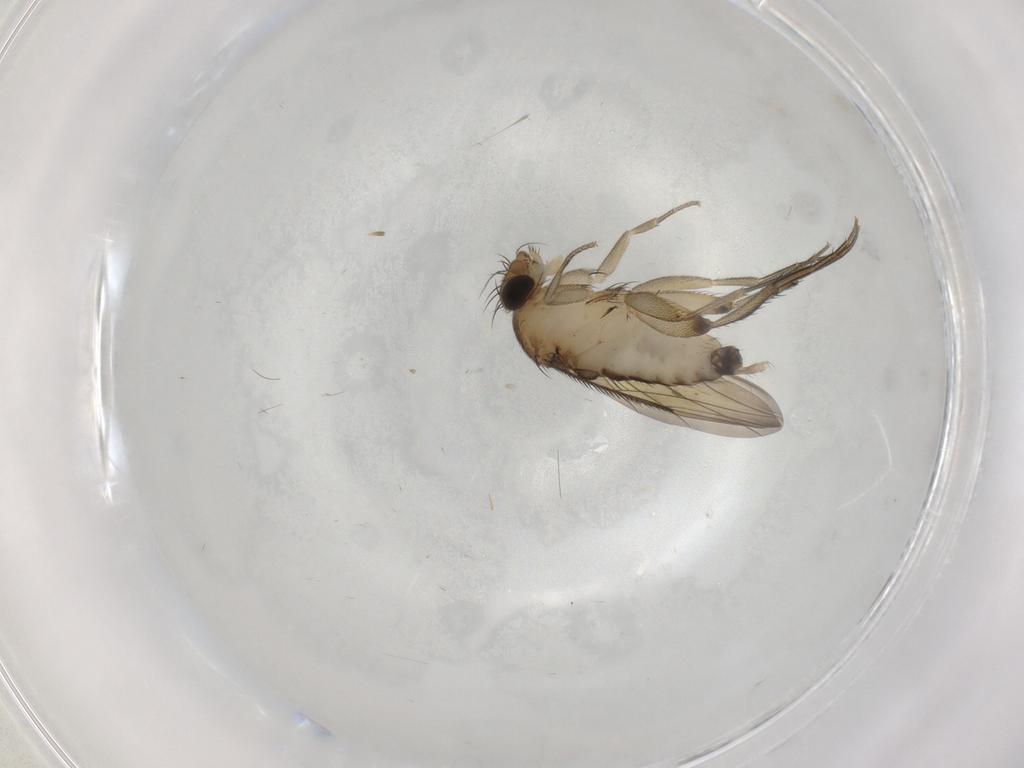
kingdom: Animalia
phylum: Arthropoda
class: Insecta
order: Diptera
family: Phoridae
